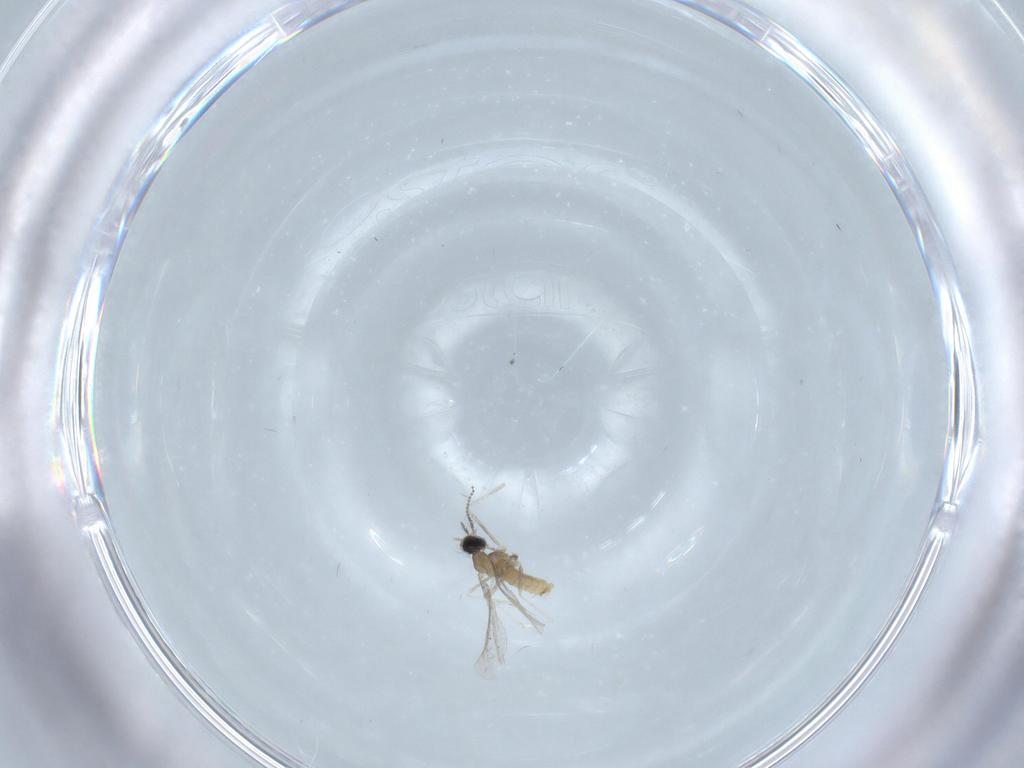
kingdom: Animalia
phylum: Arthropoda
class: Insecta
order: Diptera
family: Cecidomyiidae
